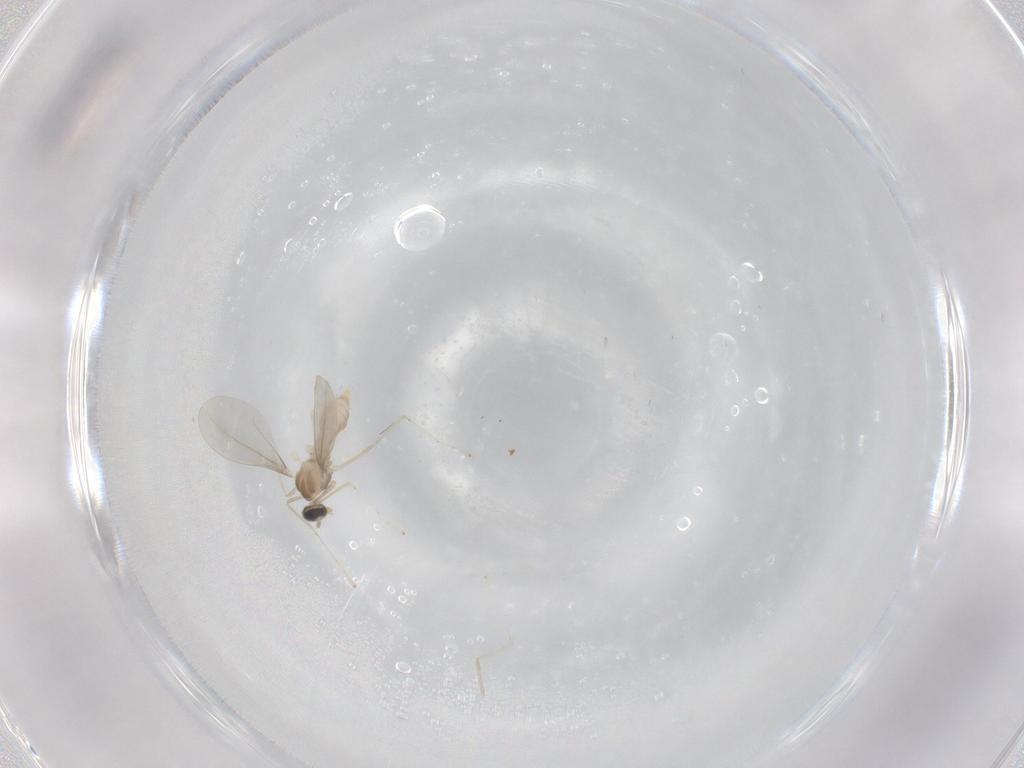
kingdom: Animalia
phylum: Arthropoda
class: Insecta
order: Diptera
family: Cecidomyiidae
